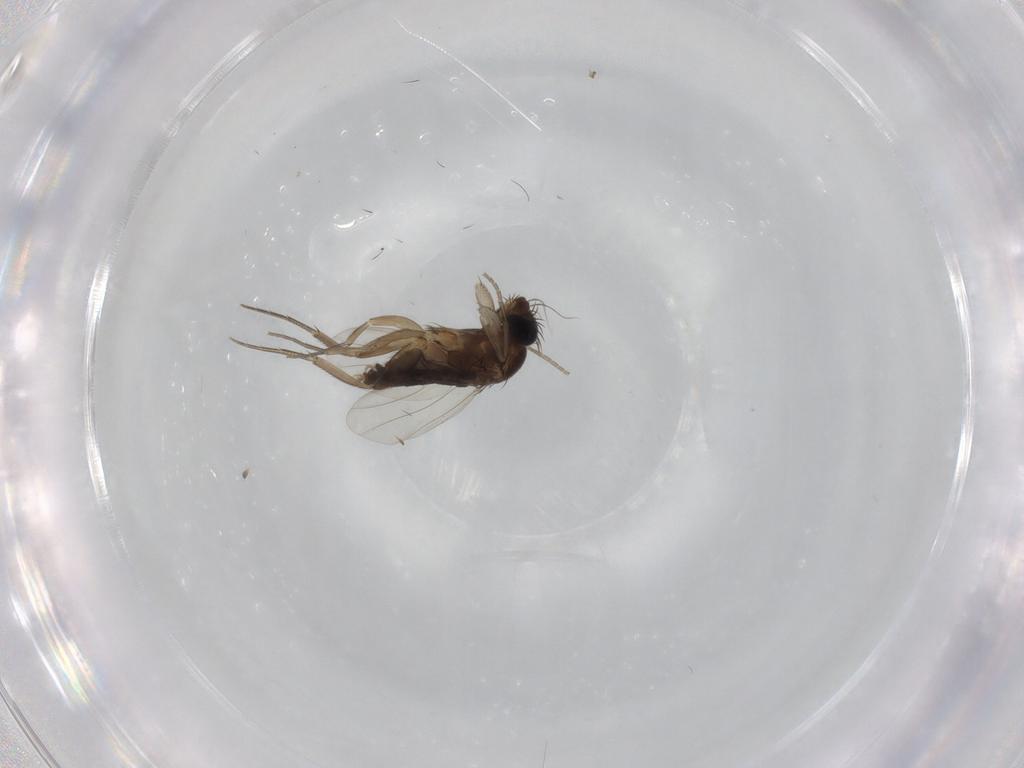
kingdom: Animalia
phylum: Arthropoda
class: Insecta
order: Diptera
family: Phoridae
